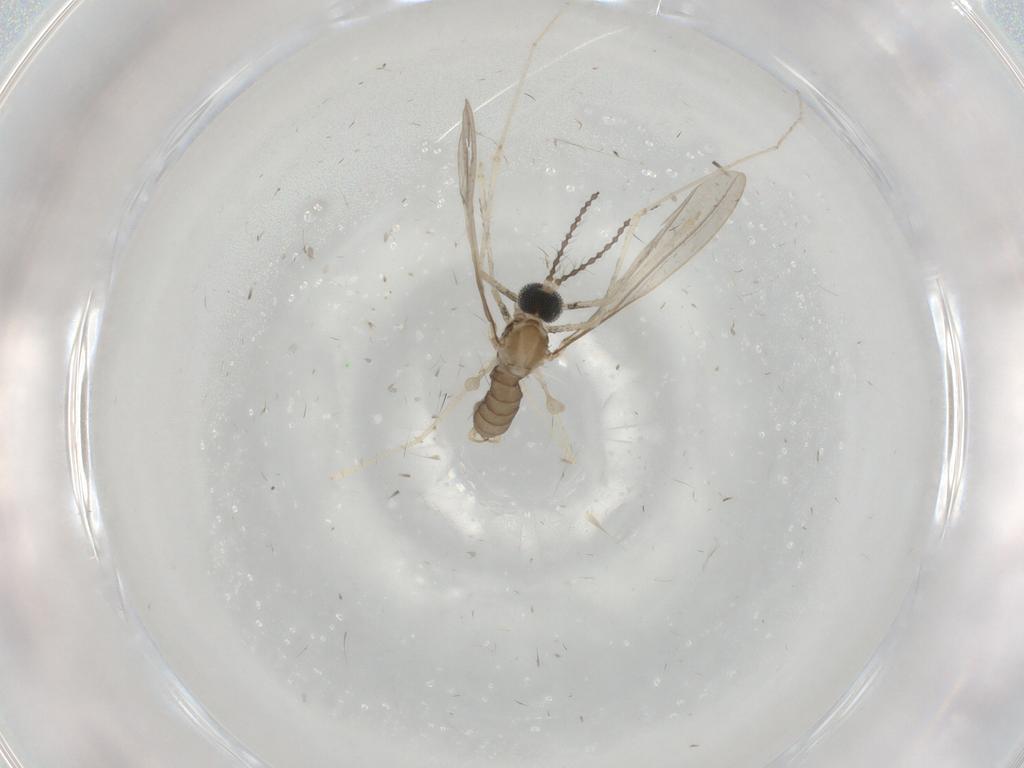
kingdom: Animalia
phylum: Arthropoda
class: Insecta
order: Diptera
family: Cecidomyiidae
